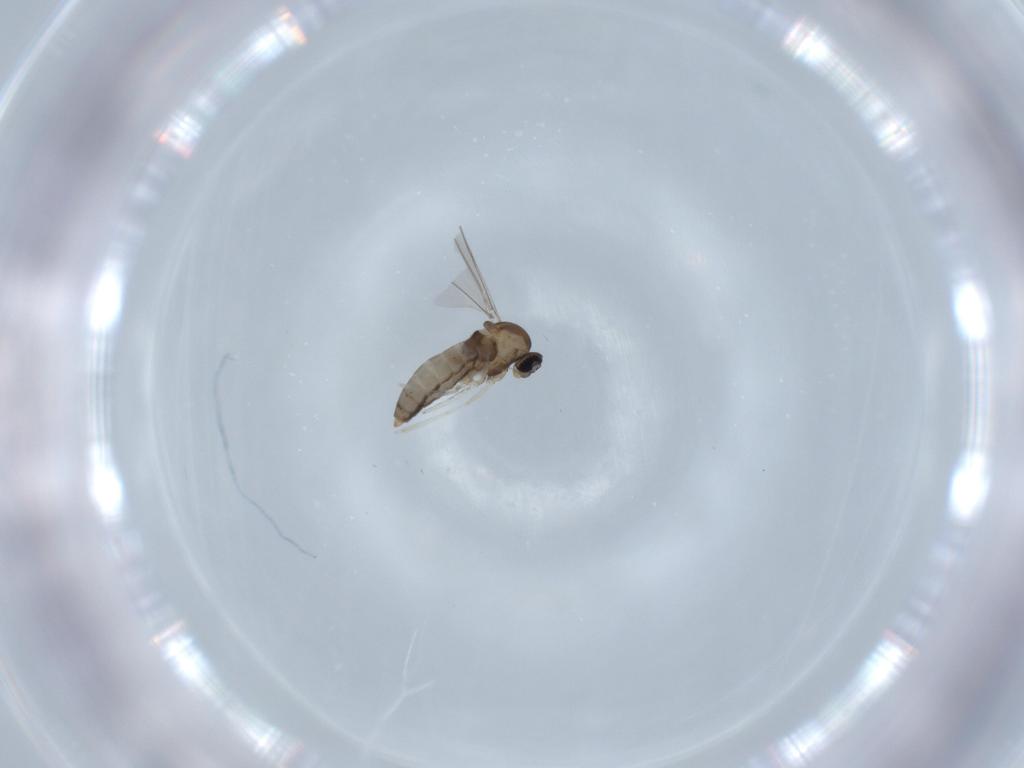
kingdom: Animalia
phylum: Arthropoda
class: Insecta
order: Diptera
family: Cecidomyiidae
